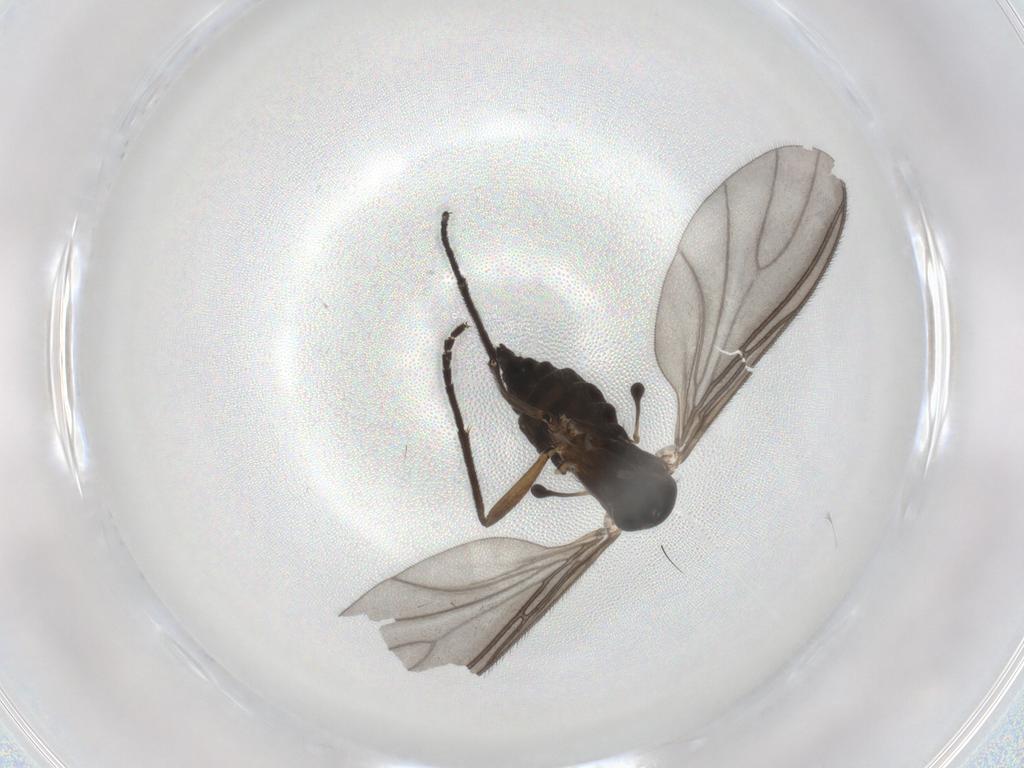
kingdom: Animalia
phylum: Arthropoda
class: Insecta
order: Diptera
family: Sciaridae
